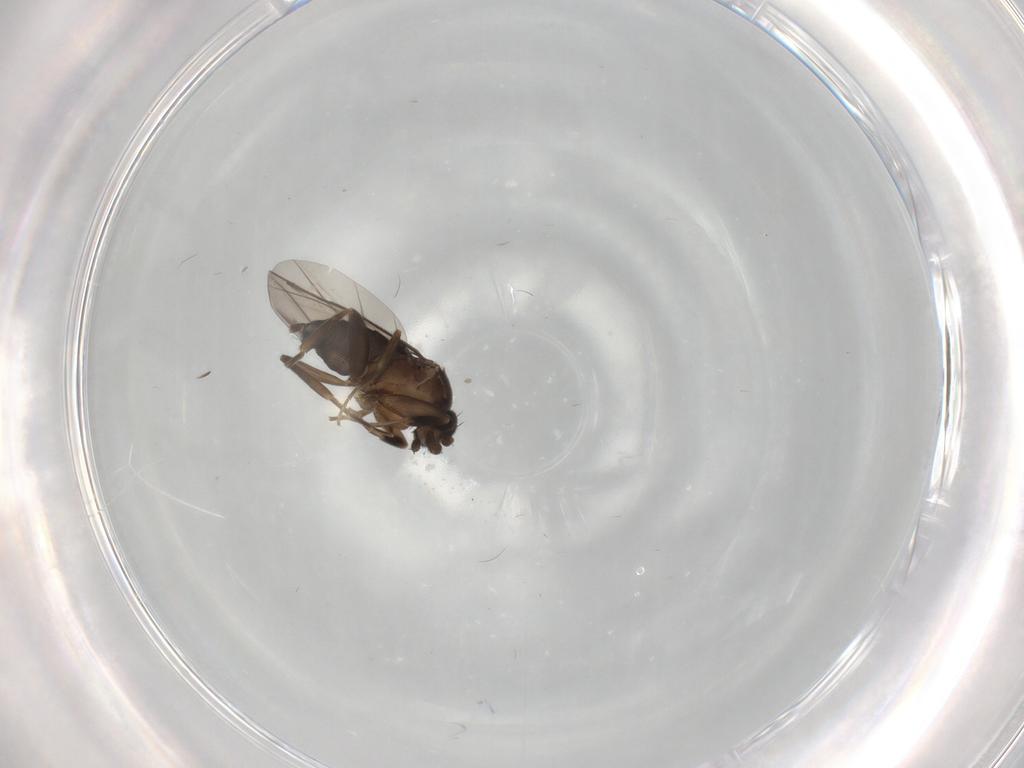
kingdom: Animalia
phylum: Arthropoda
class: Insecta
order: Diptera
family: Phoridae
